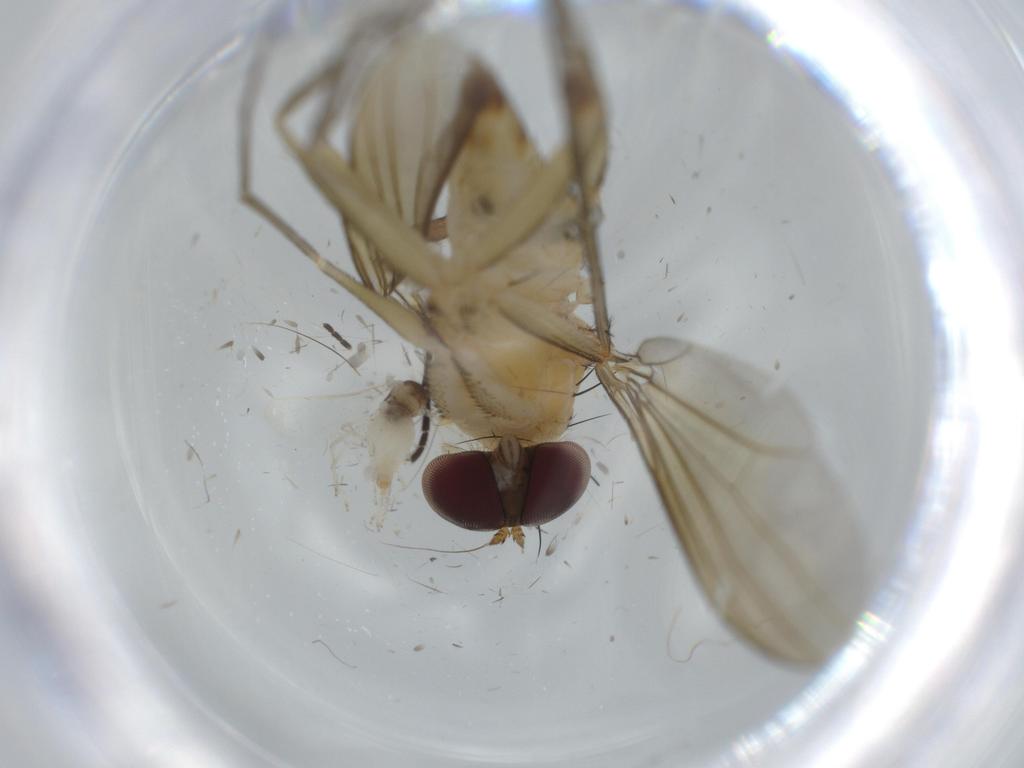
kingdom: Animalia
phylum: Arthropoda
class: Insecta
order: Diptera
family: Dolichopodidae
